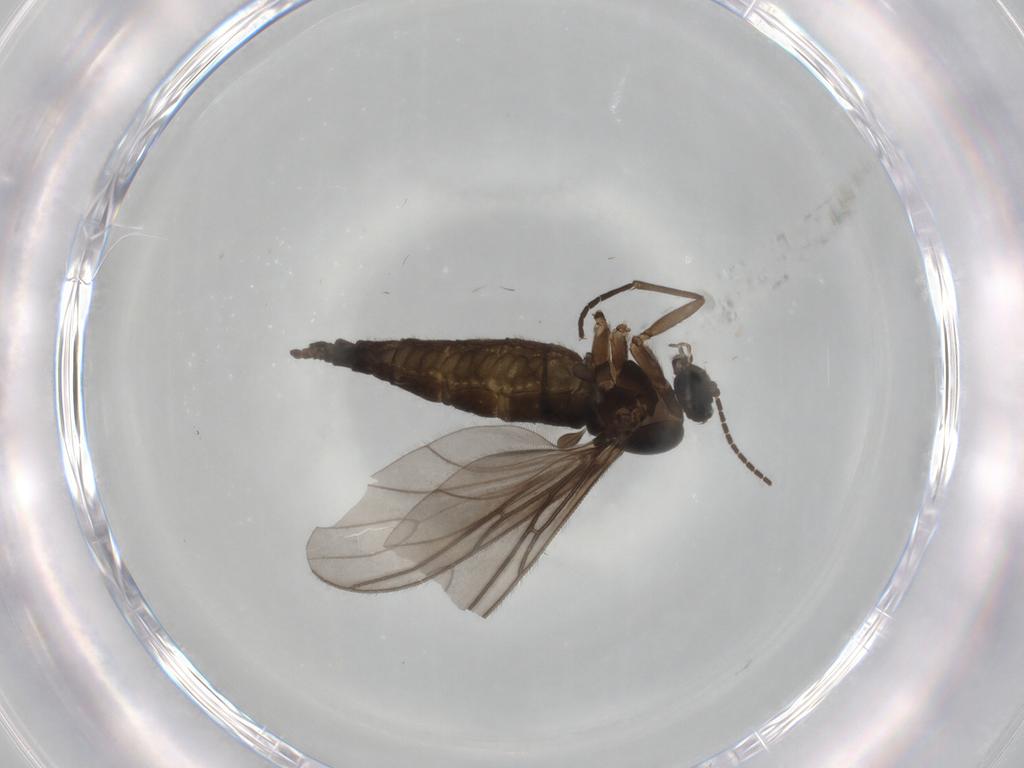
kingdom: Animalia
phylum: Arthropoda
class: Insecta
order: Diptera
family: Sciaridae
